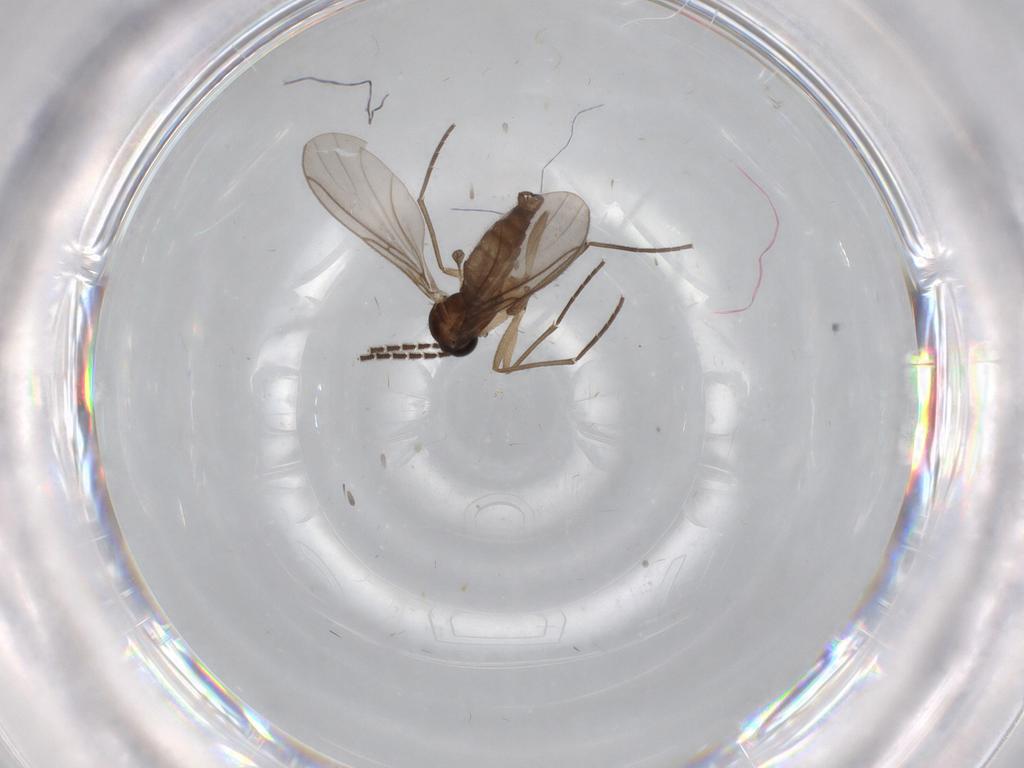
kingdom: Animalia
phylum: Arthropoda
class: Insecta
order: Diptera
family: Sciaridae
